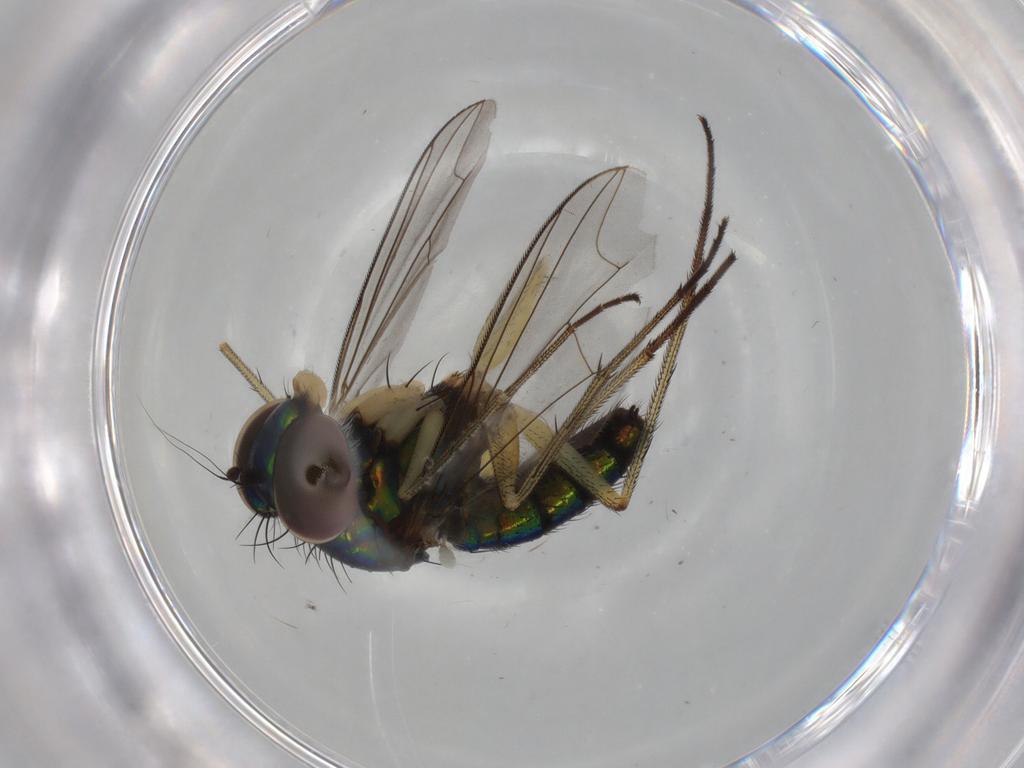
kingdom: Animalia
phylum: Arthropoda
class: Insecta
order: Diptera
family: Dolichopodidae
